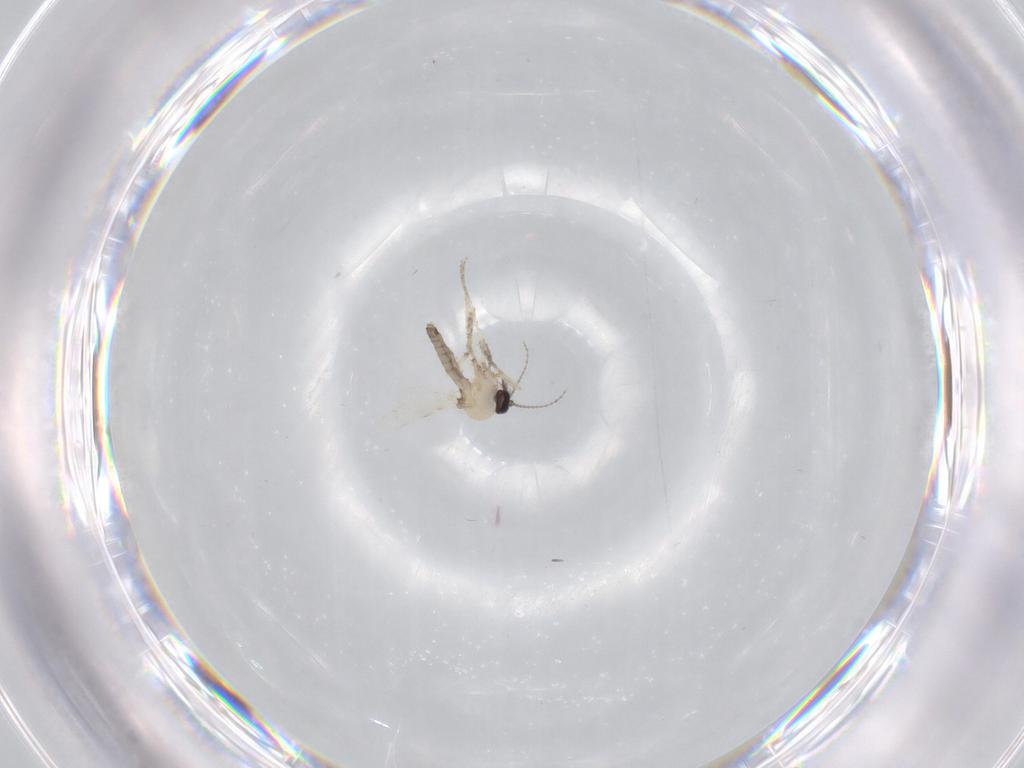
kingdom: Animalia
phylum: Arthropoda
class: Insecta
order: Diptera
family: Ceratopogonidae
